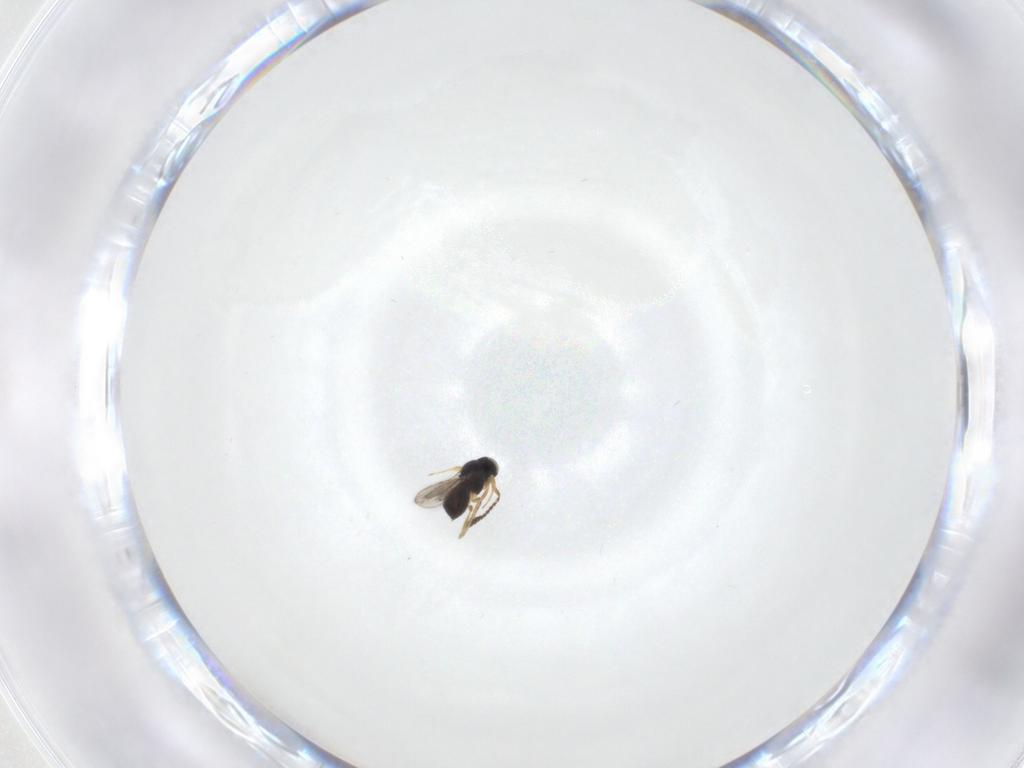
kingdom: Animalia
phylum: Arthropoda
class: Insecta
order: Hymenoptera
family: Scelionidae
